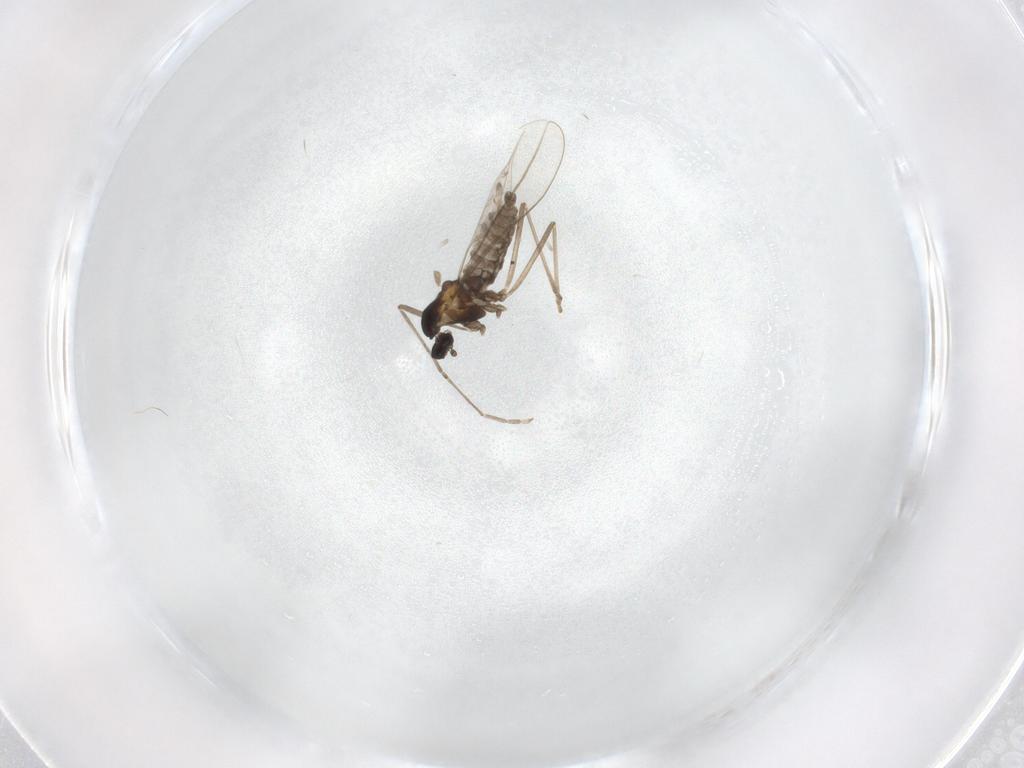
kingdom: Animalia
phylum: Arthropoda
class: Insecta
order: Diptera
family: Cecidomyiidae
